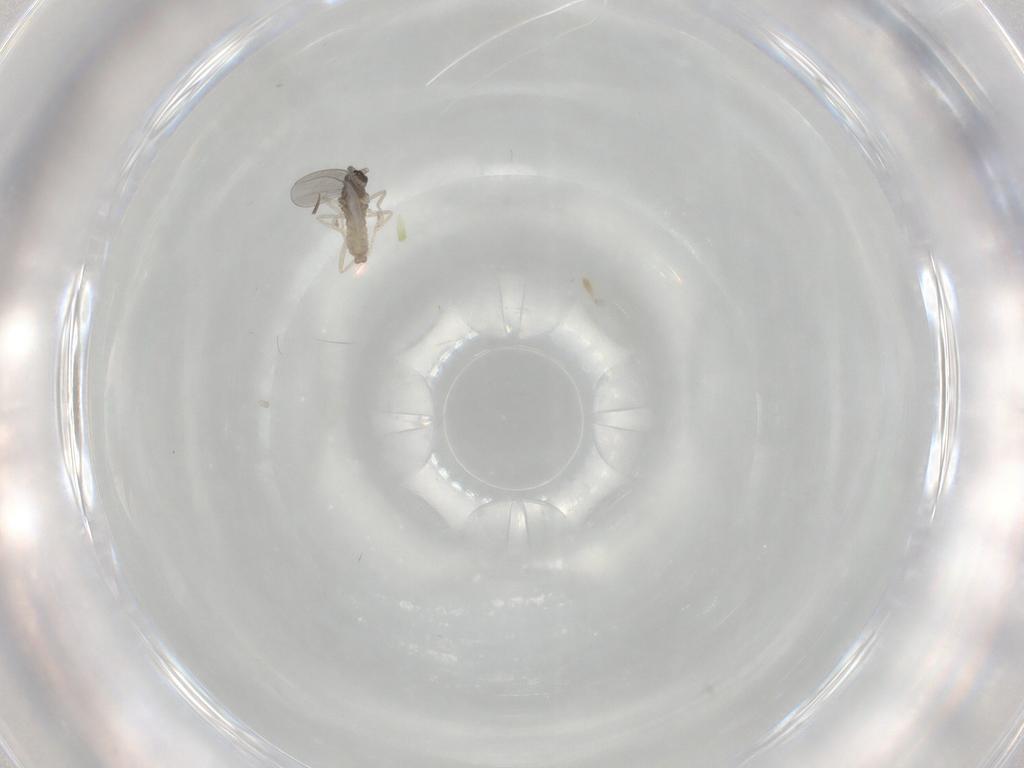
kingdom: Animalia
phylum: Arthropoda
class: Insecta
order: Diptera
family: Cecidomyiidae
